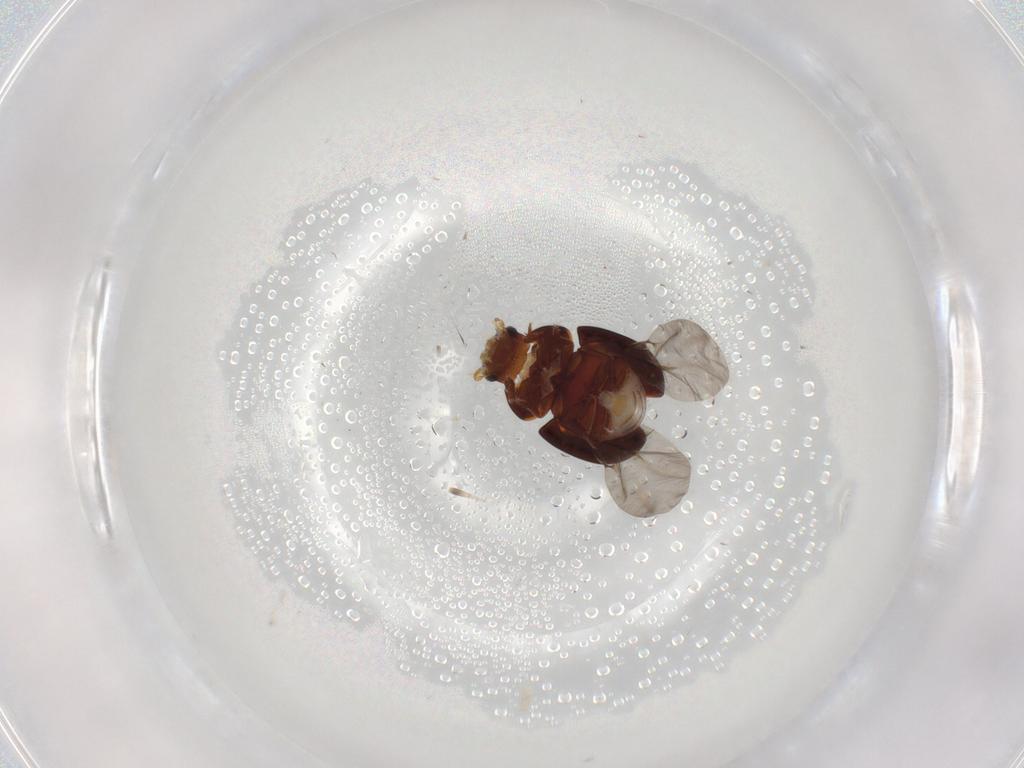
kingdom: Animalia
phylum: Arthropoda
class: Insecta
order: Coleoptera
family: Hydrophilidae
